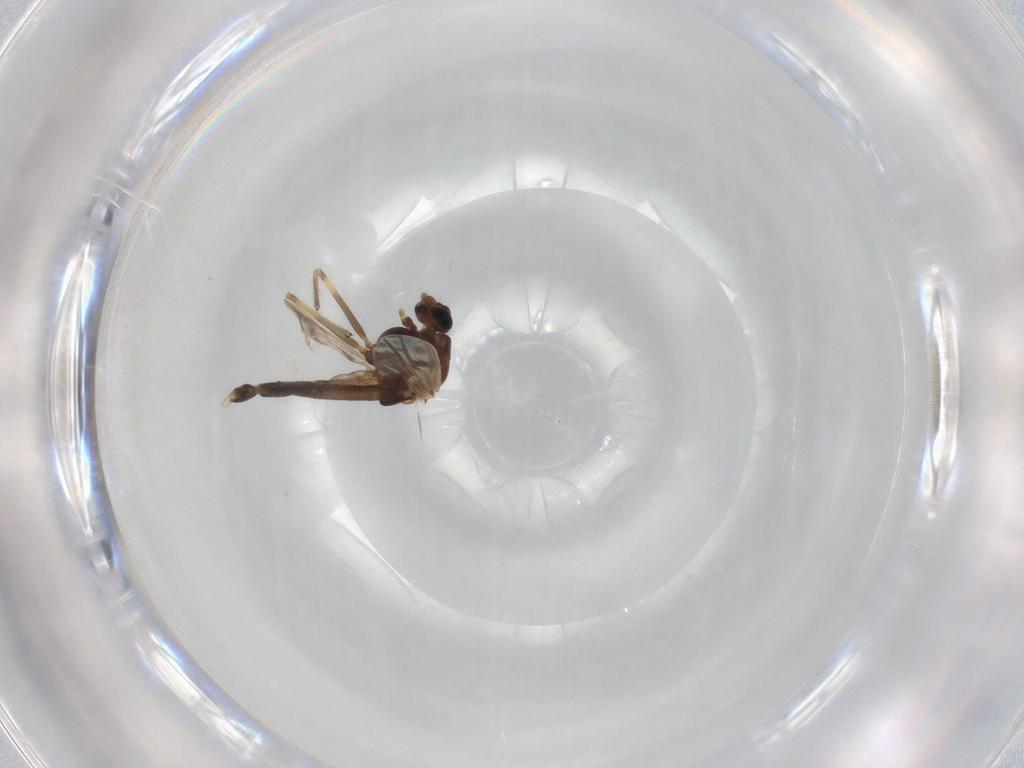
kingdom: Animalia
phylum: Arthropoda
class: Insecta
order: Diptera
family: Chironomidae
